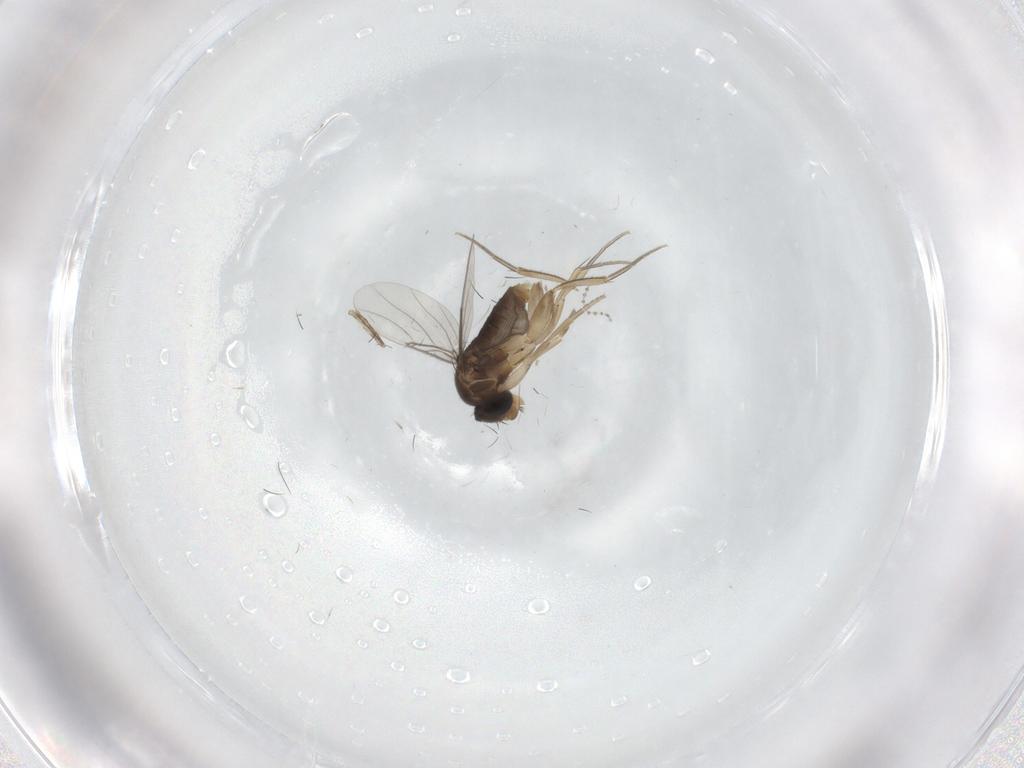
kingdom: Animalia
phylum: Arthropoda
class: Insecta
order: Diptera
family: Phoridae
